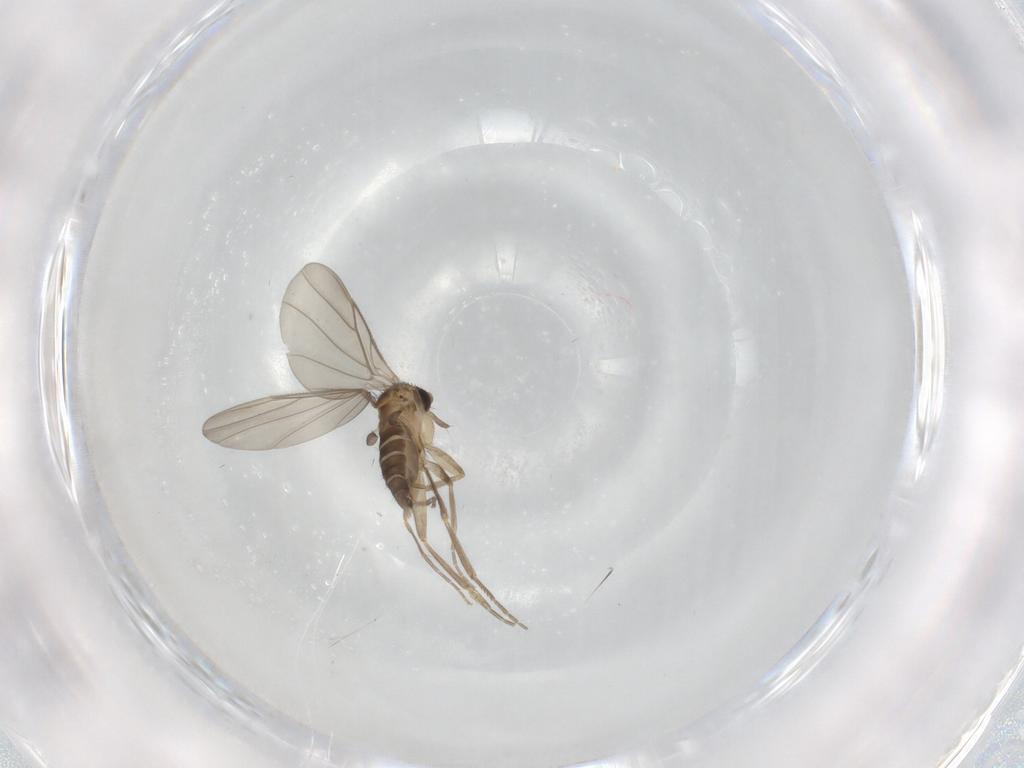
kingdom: Animalia
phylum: Arthropoda
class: Insecta
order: Diptera
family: Phoridae
